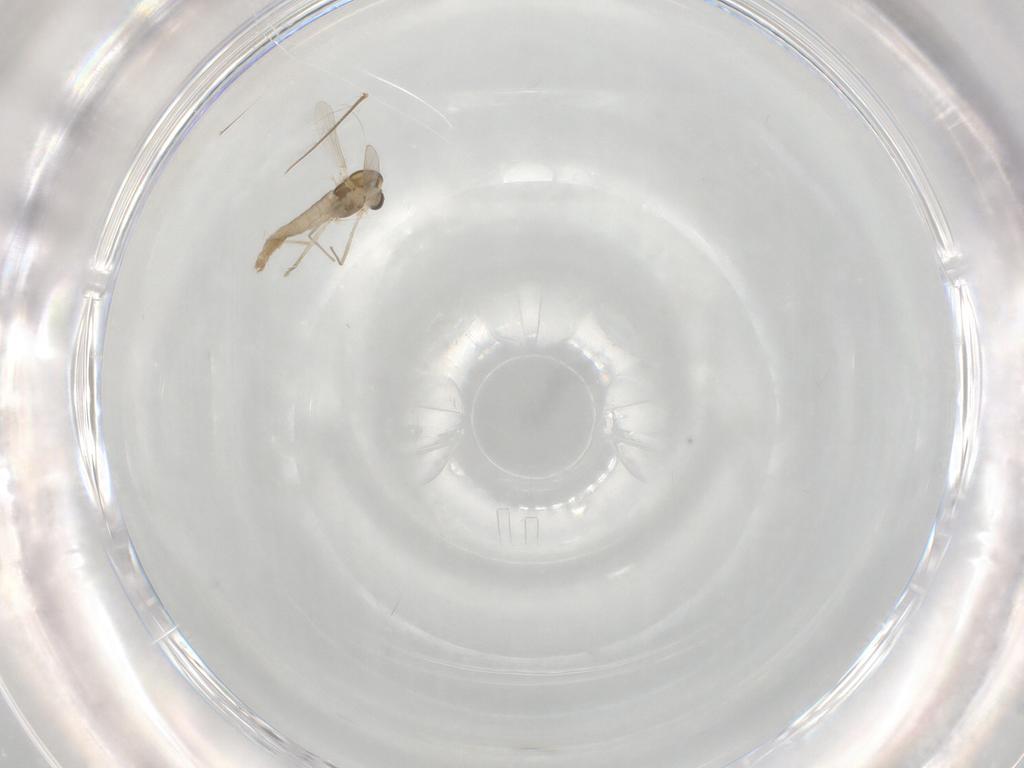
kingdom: Animalia
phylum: Arthropoda
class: Insecta
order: Diptera
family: Chironomidae
